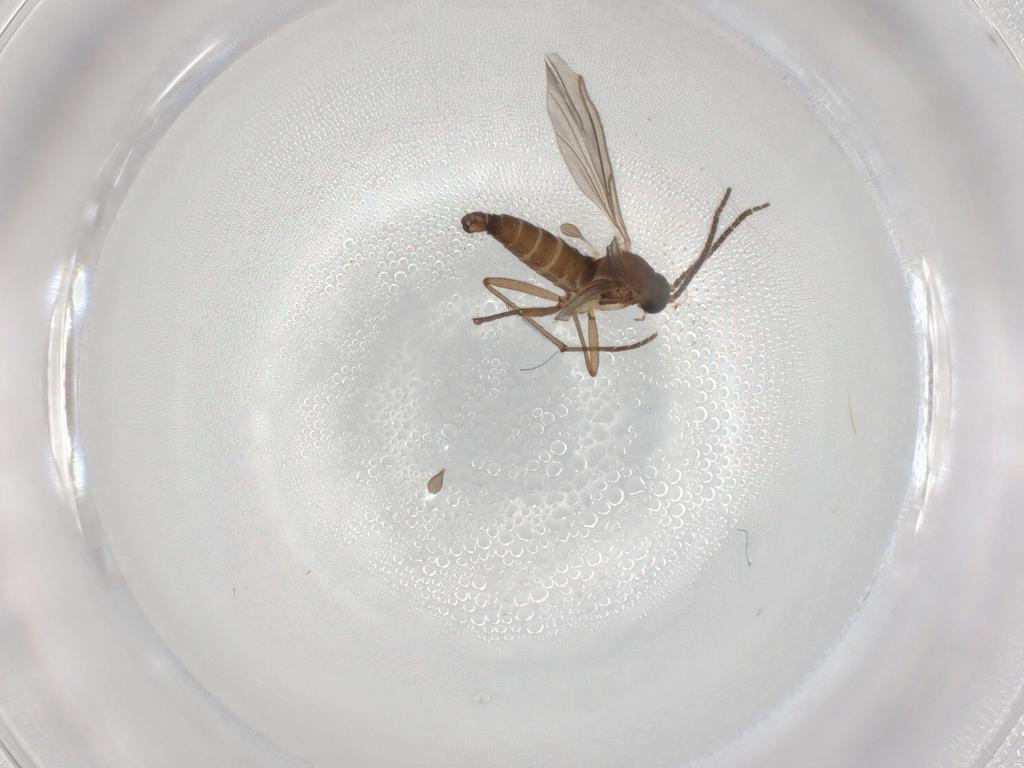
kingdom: Animalia
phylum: Arthropoda
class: Insecta
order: Diptera
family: Sciaridae
